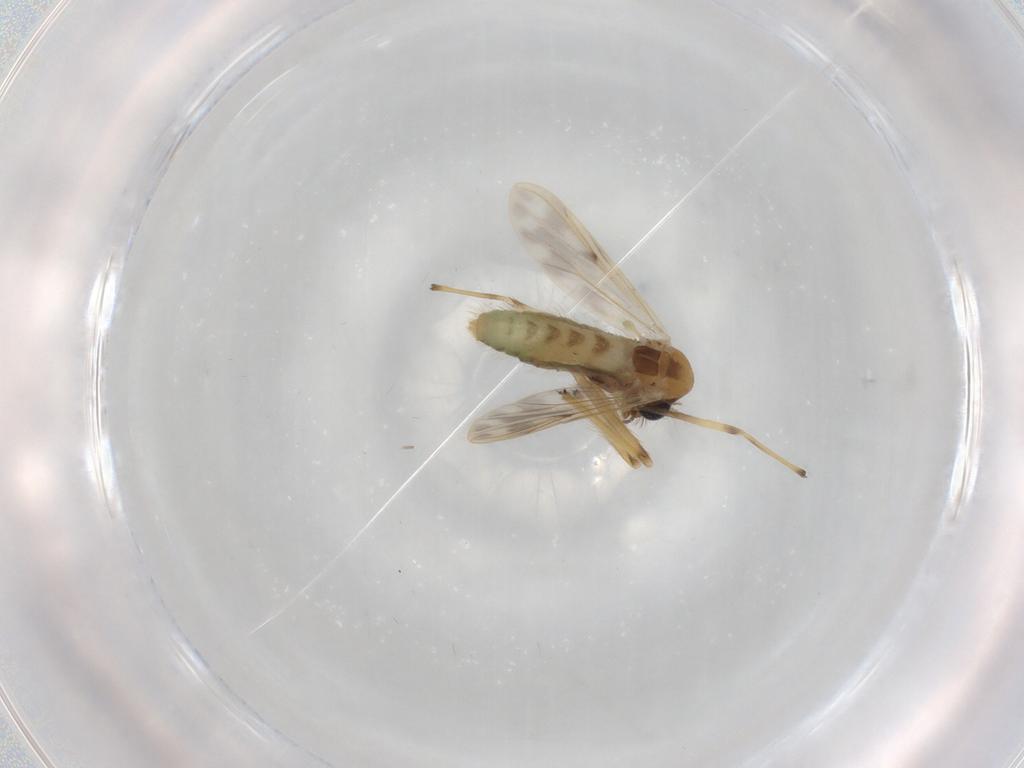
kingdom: Animalia
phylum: Arthropoda
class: Insecta
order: Diptera
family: Chironomidae
